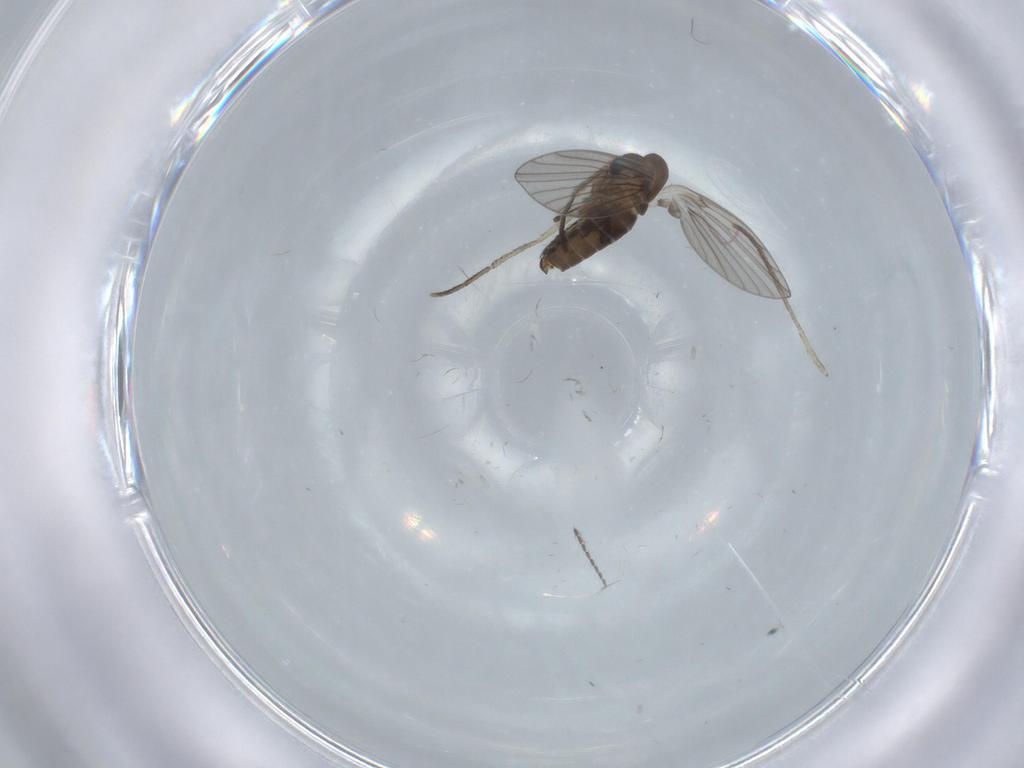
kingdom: Animalia
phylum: Arthropoda
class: Insecta
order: Diptera
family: Psychodidae
